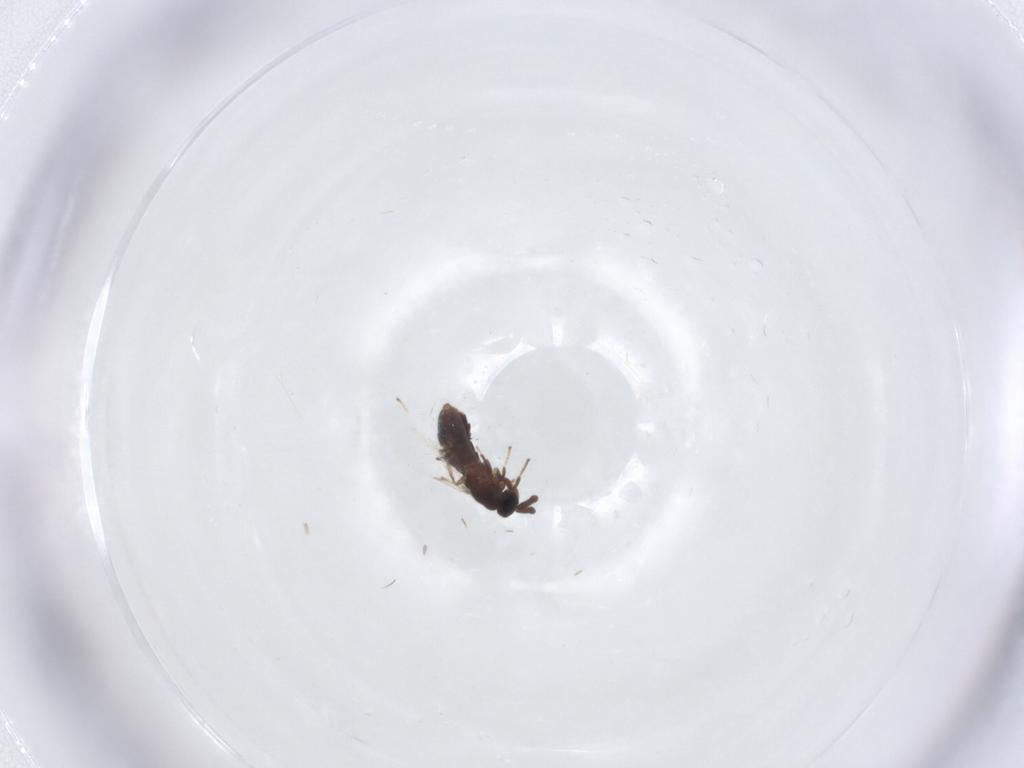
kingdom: Animalia
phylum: Arthropoda
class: Insecta
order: Diptera
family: Scatopsidae
